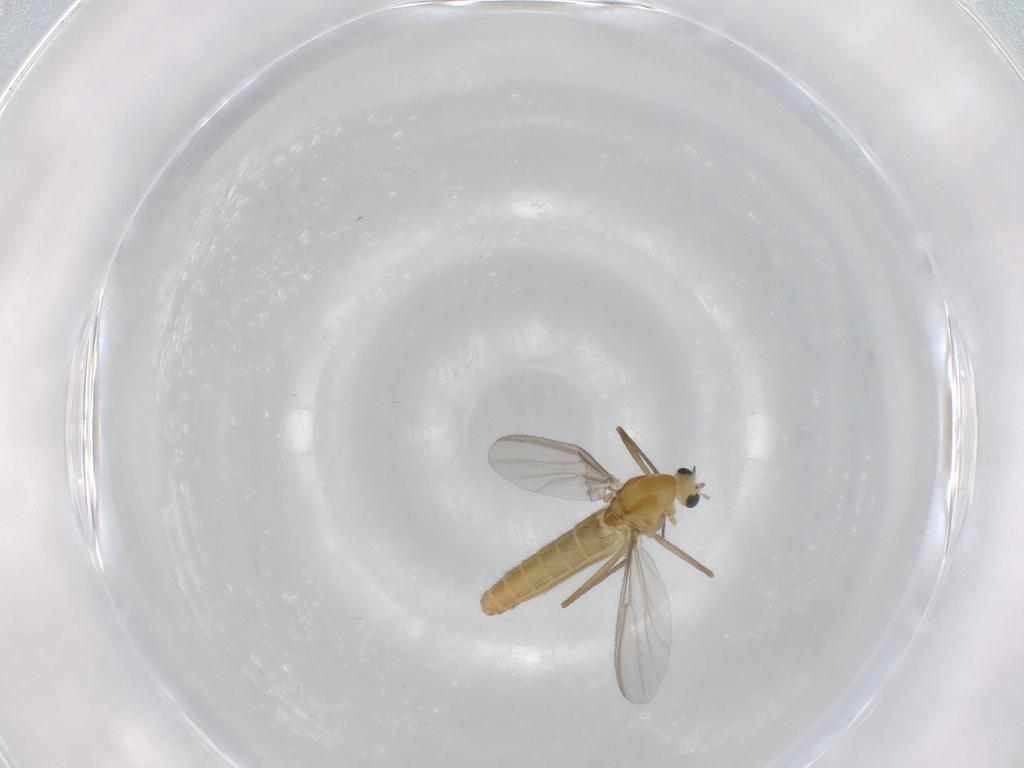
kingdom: Animalia
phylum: Arthropoda
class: Insecta
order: Diptera
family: Chironomidae
